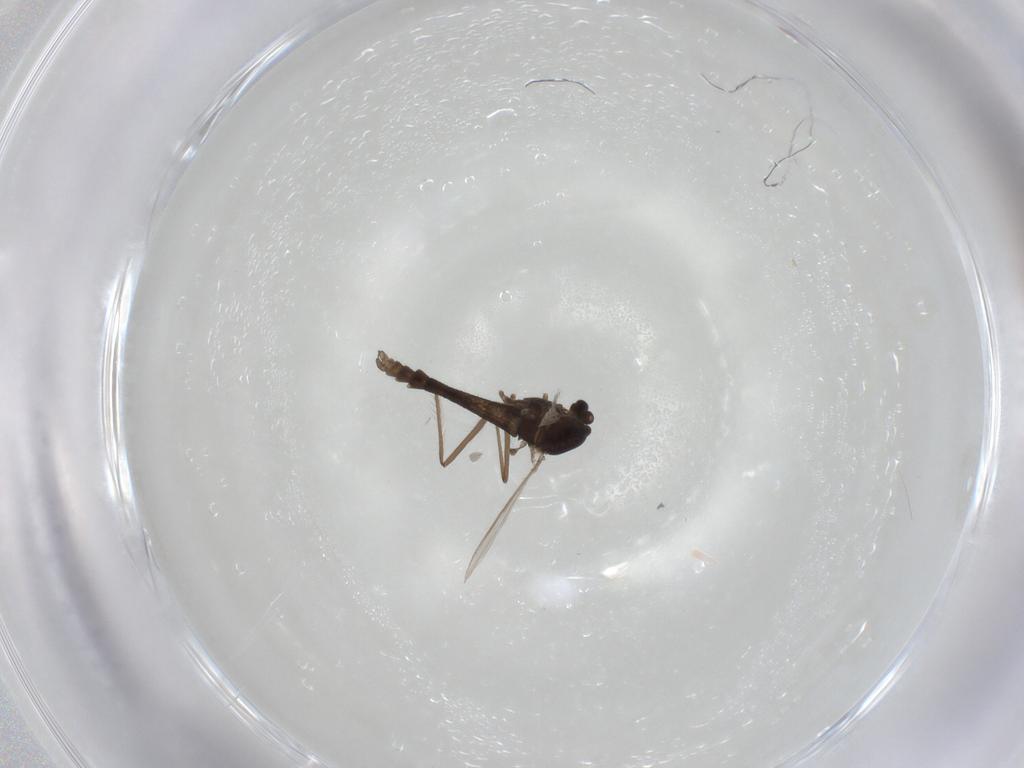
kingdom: Animalia
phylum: Arthropoda
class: Insecta
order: Diptera
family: Chironomidae
